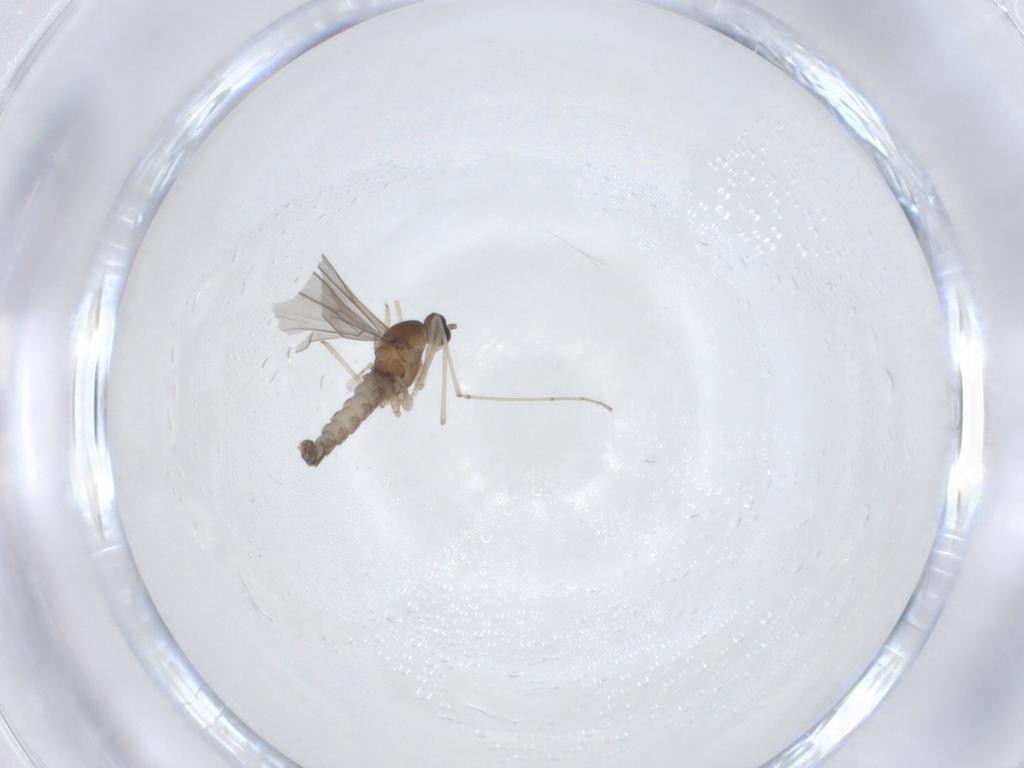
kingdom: Animalia
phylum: Arthropoda
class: Insecta
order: Diptera
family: Cecidomyiidae
